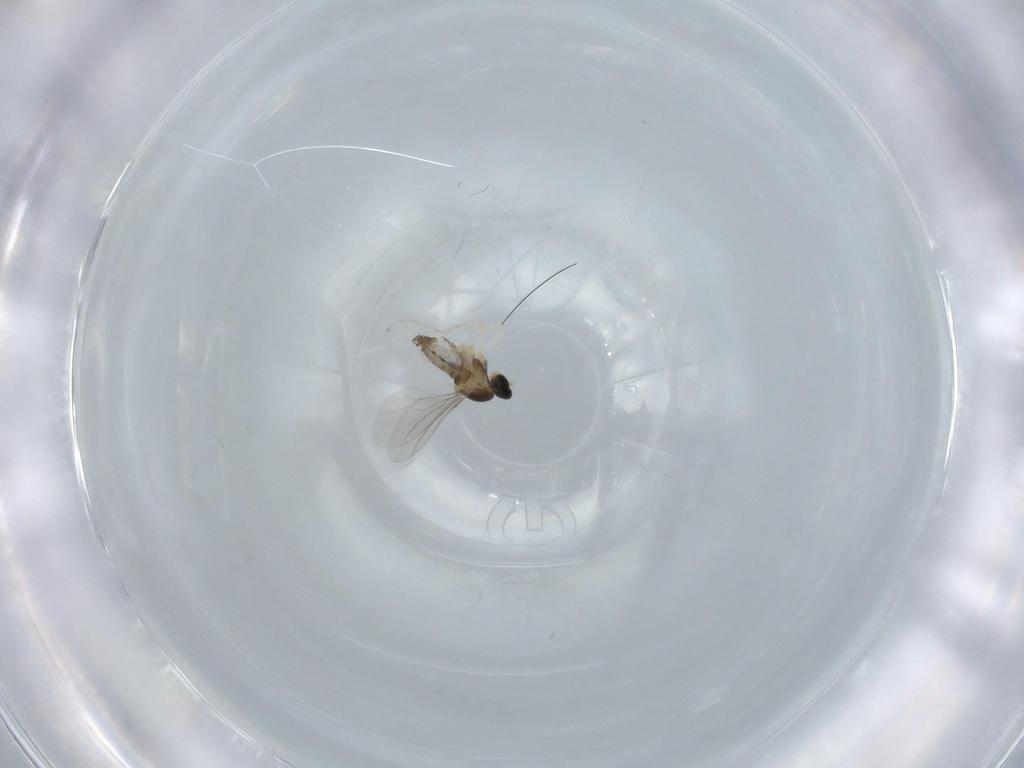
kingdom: Animalia
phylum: Arthropoda
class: Insecta
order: Diptera
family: Cecidomyiidae
